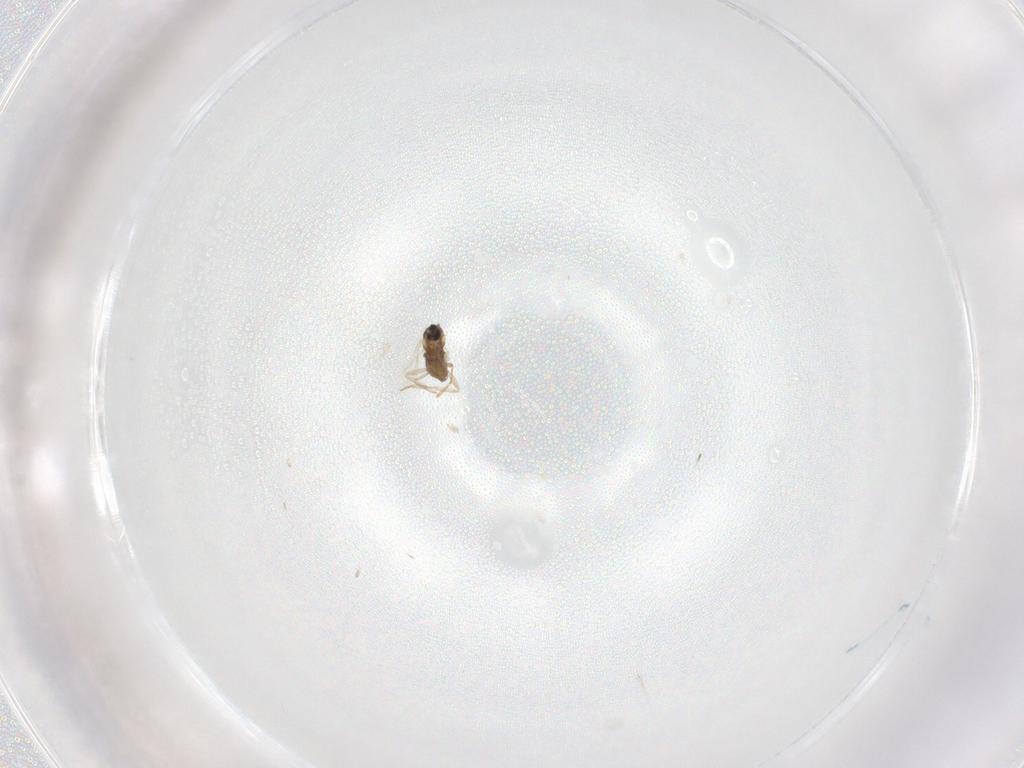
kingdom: Animalia
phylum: Arthropoda
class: Insecta
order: Diptera
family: Cecidomyiidae
